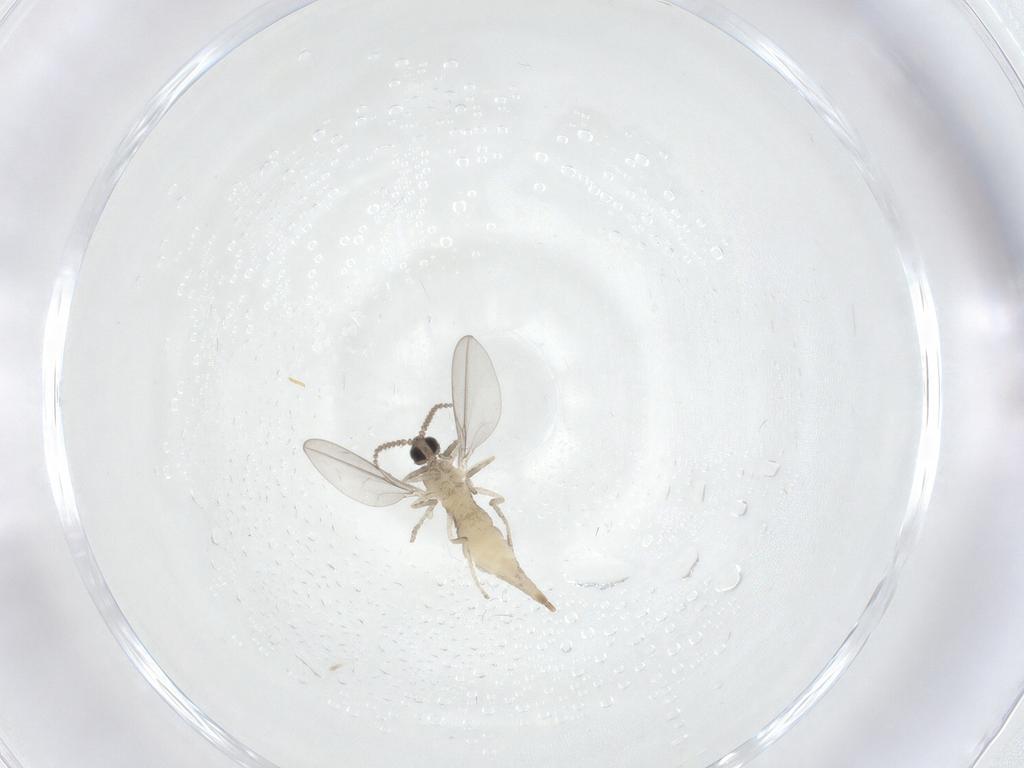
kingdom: Animalia
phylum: Arthropoda
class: Insecta
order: Diptera
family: Cecidomyiidae
